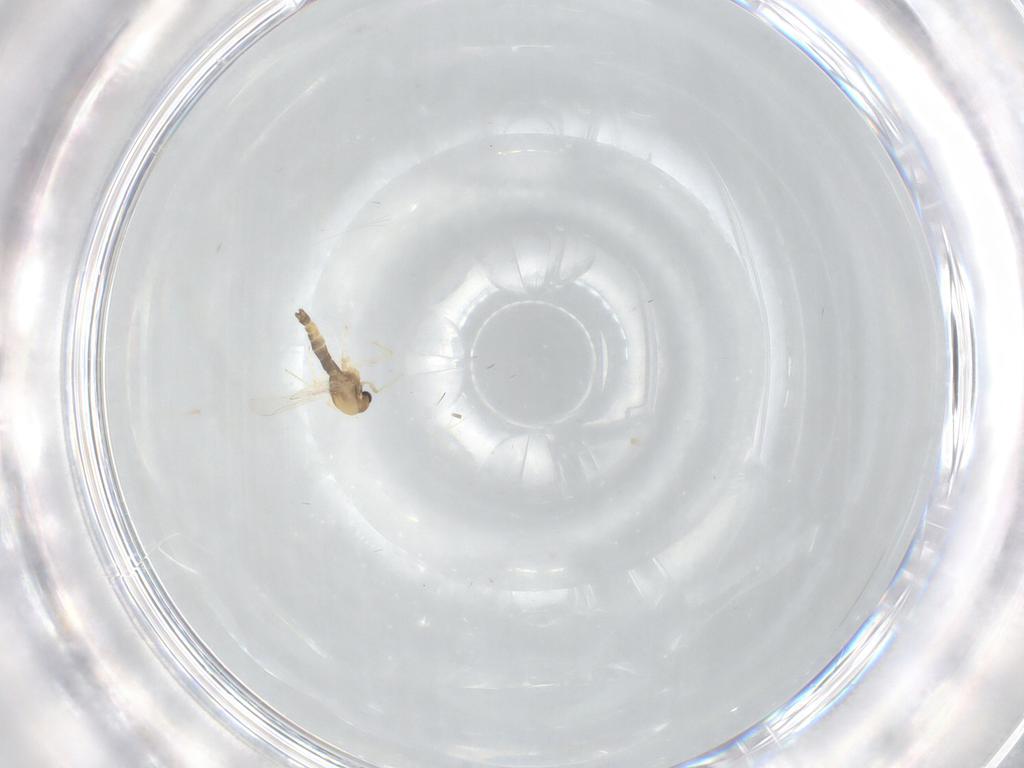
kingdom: Animalia
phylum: Arthropoda
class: Insecta
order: Diptera
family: Chironomidae
